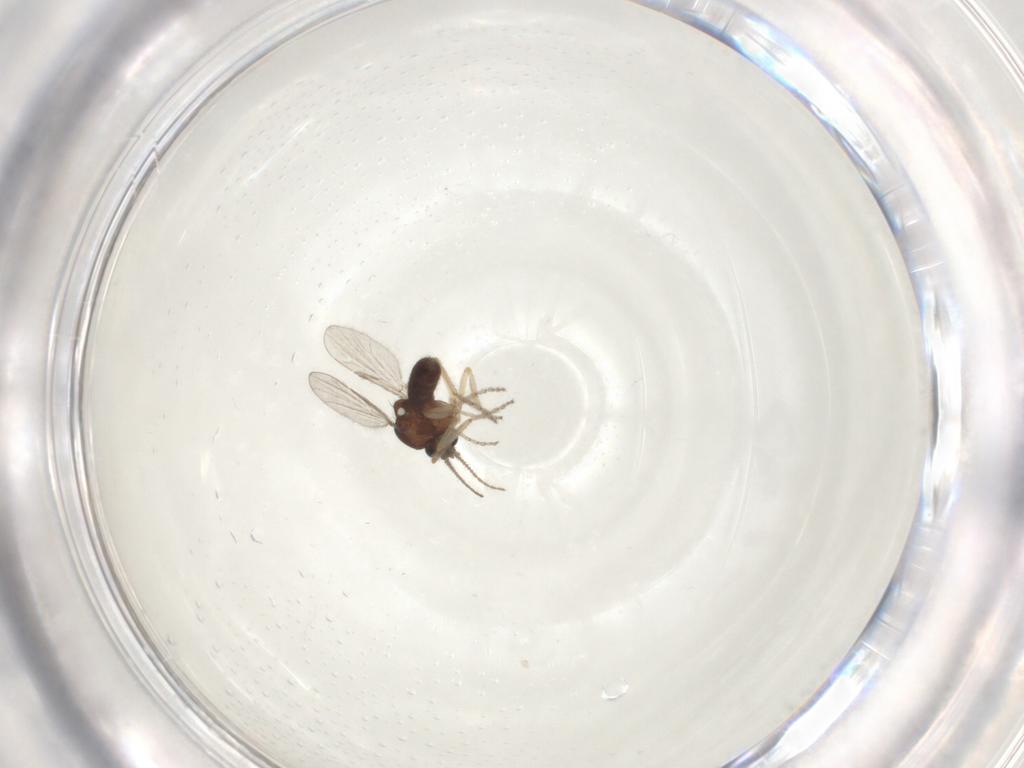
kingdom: Animalia
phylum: Arthropoda
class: Insecta
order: Diptera
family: Ceratopogonidae
